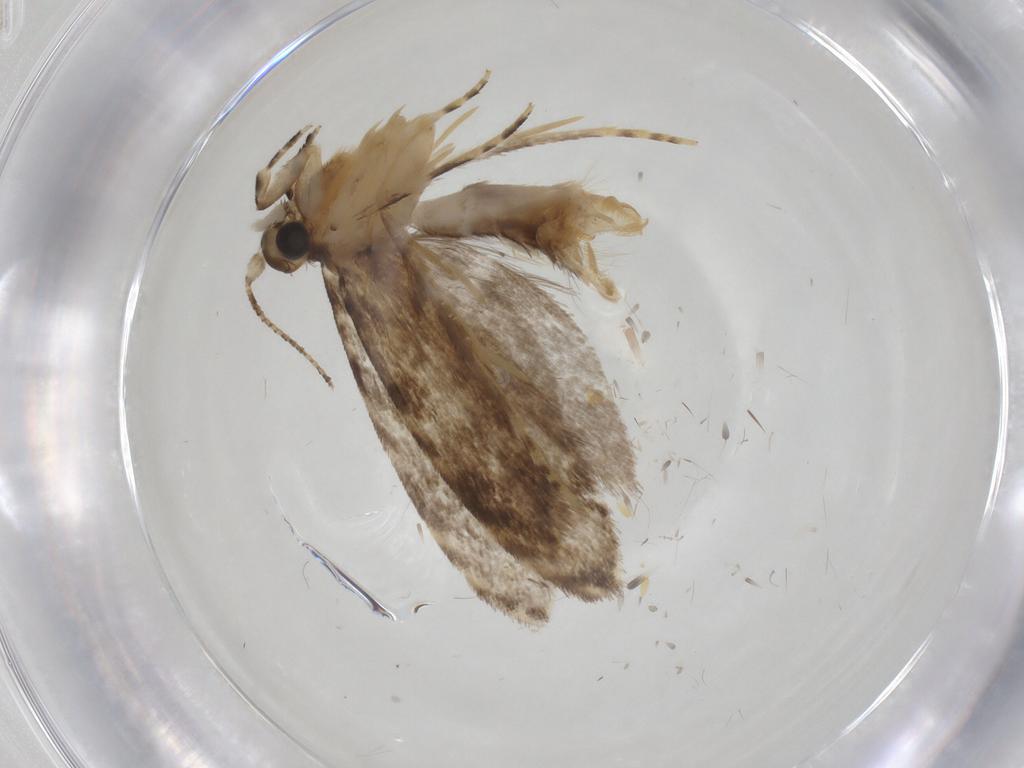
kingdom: Animalia
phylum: Arthropoda
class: Insecta
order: Lepidoptera
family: Tineidae
